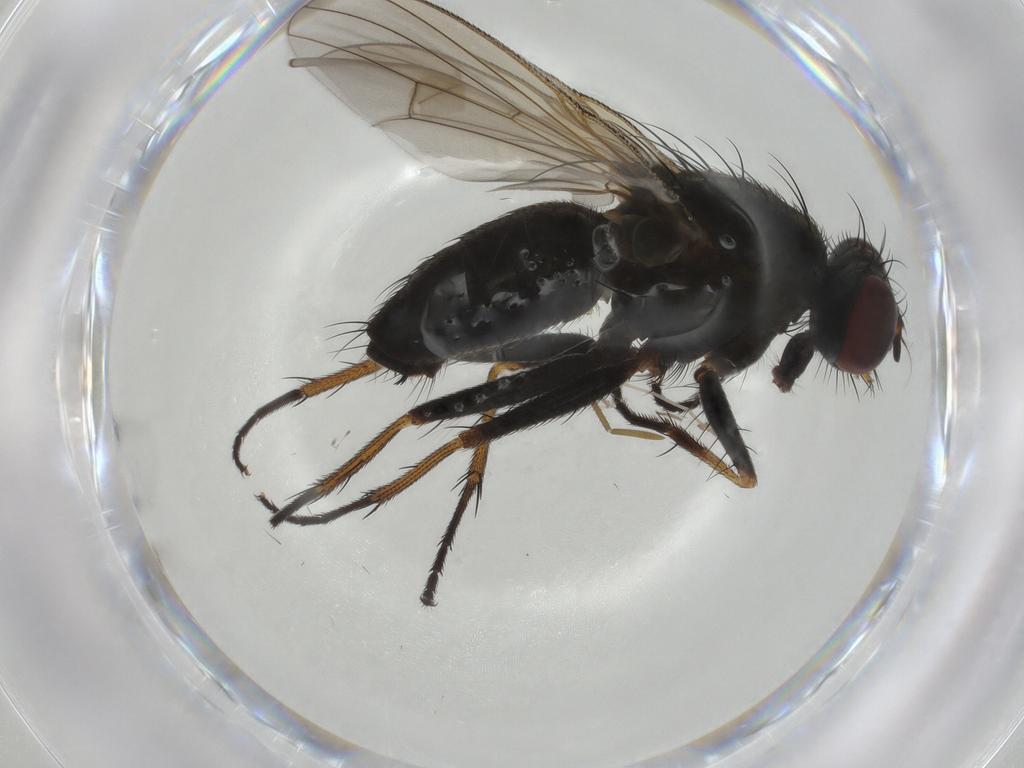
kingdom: Animalia
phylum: Arthropoda
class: Insecta
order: Diptera
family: Muscidae
